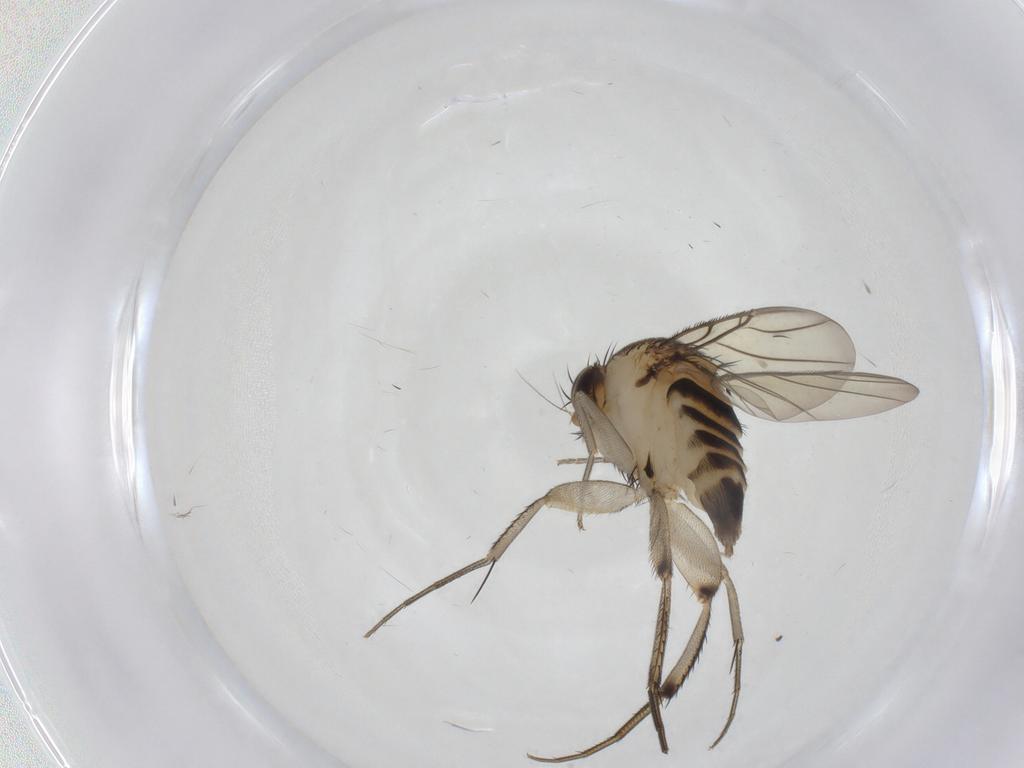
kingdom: Animalia
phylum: Arthropoda
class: Insecta
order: Diptera
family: Phoridae
